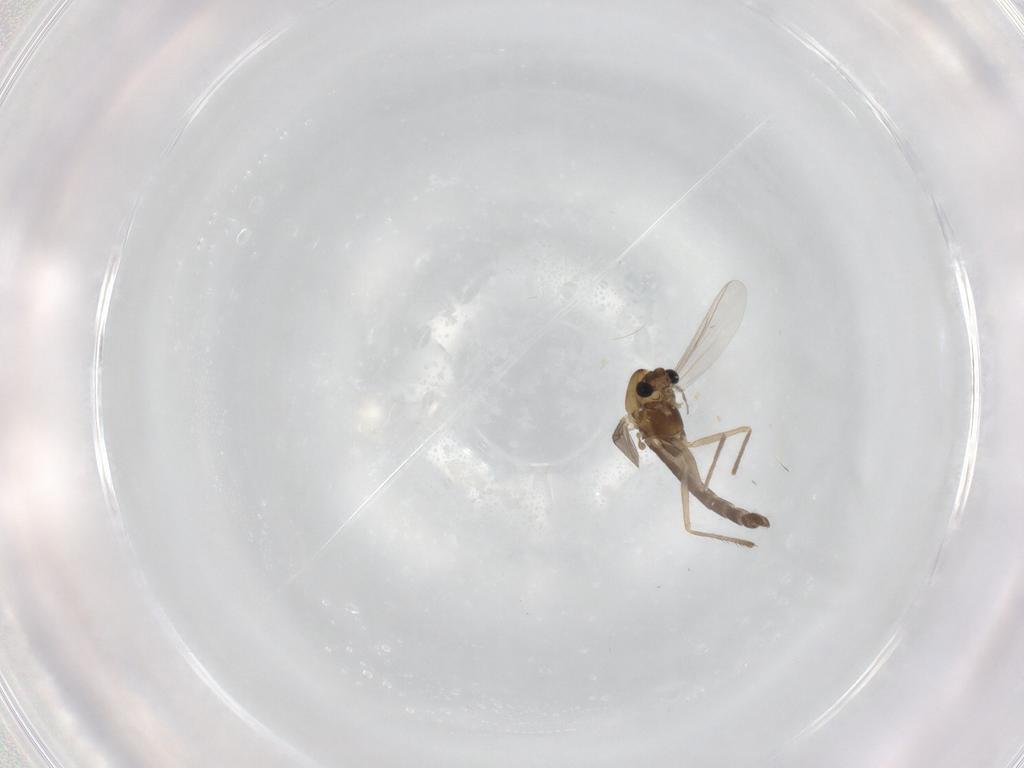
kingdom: Animalia
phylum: Arthropoda
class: Insecta
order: Diptera
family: Chironomidae
